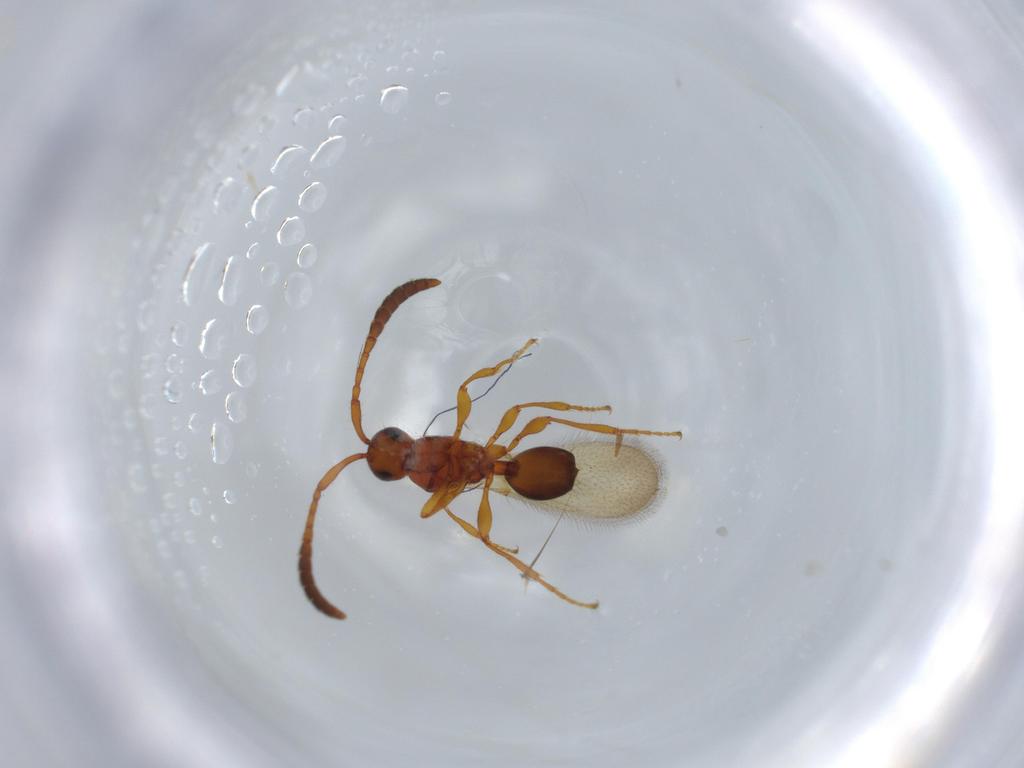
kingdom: Animalia
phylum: Arthropoda
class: Insecta
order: Hymenoptera
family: Diapriidae
